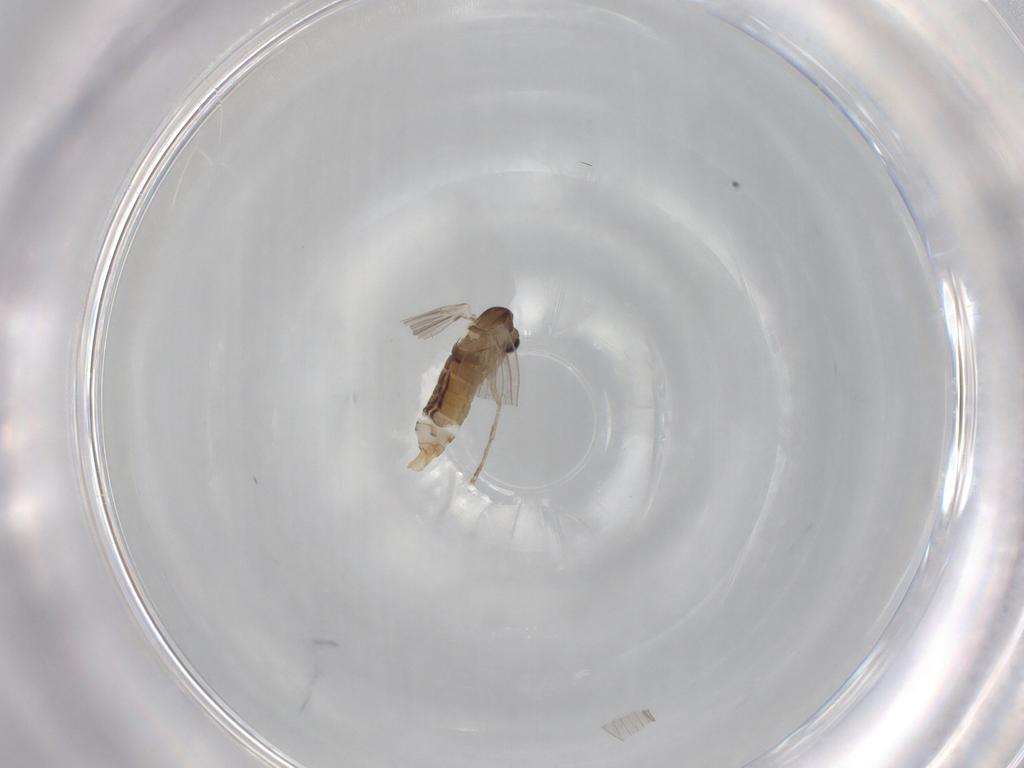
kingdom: Animalia
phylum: Arthropoda
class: Insecta
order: Diptera
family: Psychodidae
